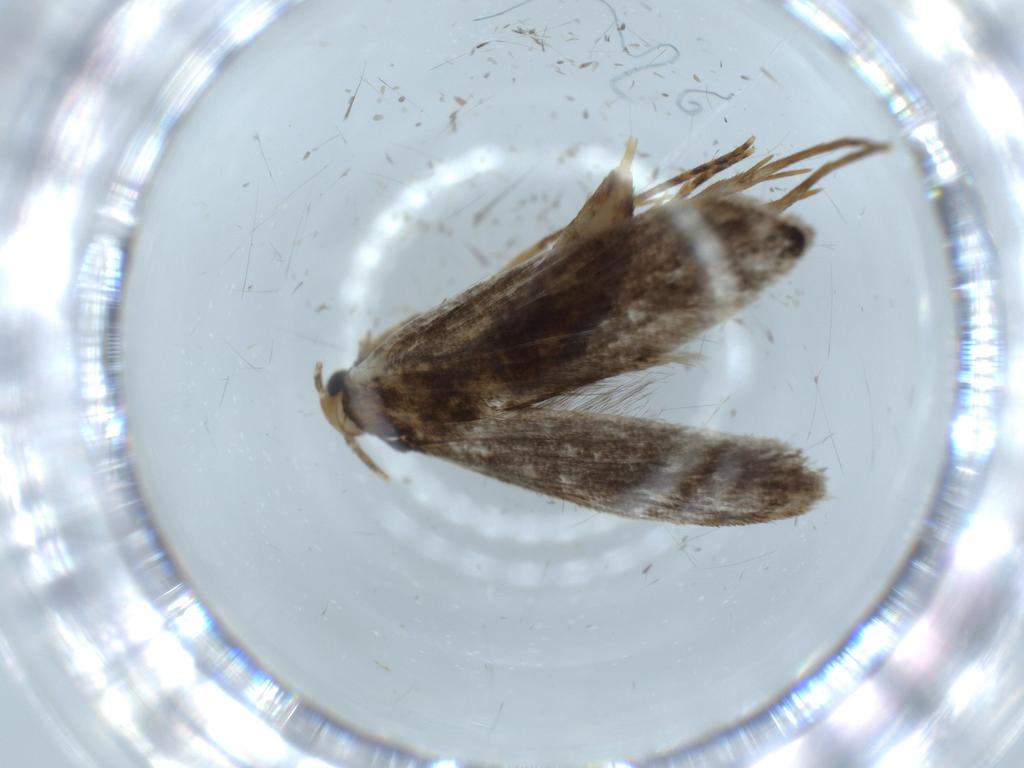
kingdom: Animalia
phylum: Arthropoda
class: Insecta
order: Lepidoptera
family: Tineidae
